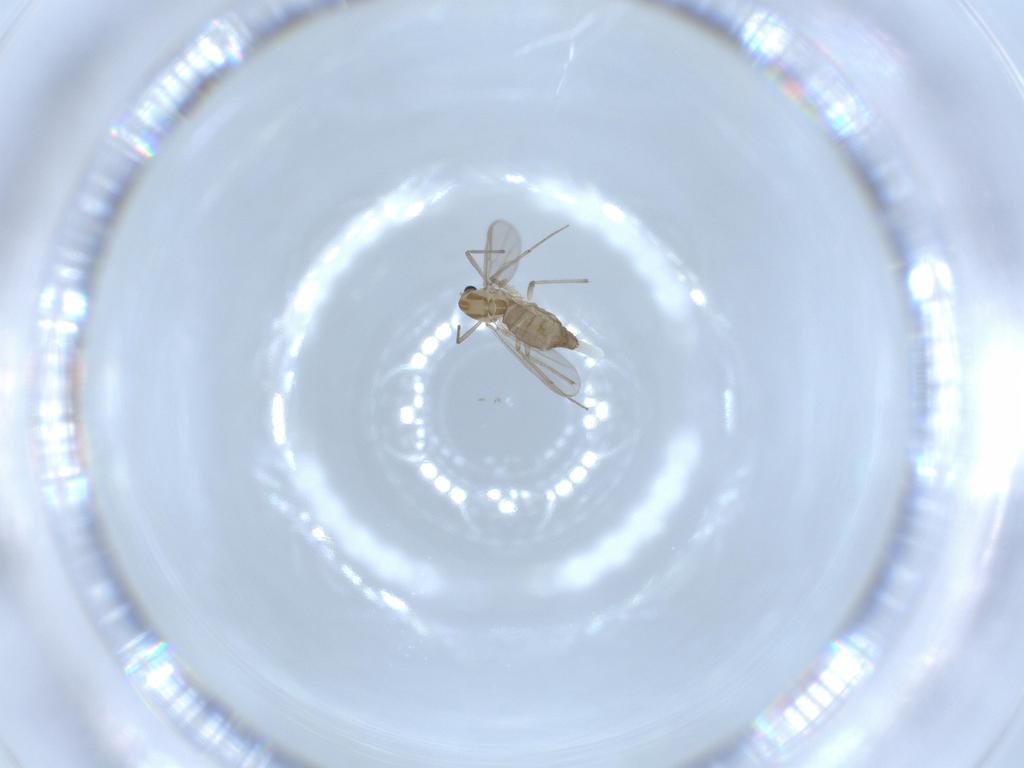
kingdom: Animalia
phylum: Arthropoda
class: Insecta
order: Diptera
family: Chironomidae
